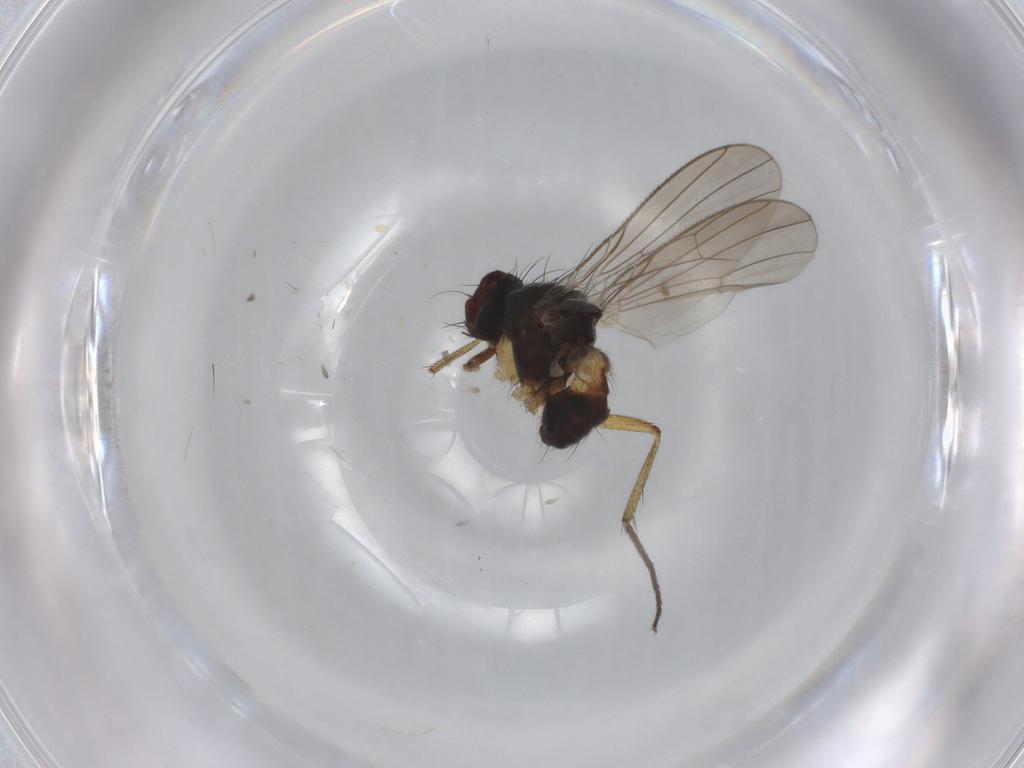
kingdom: Animalia
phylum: Arthropoda
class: Insecta
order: Diptera
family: Muscidae
